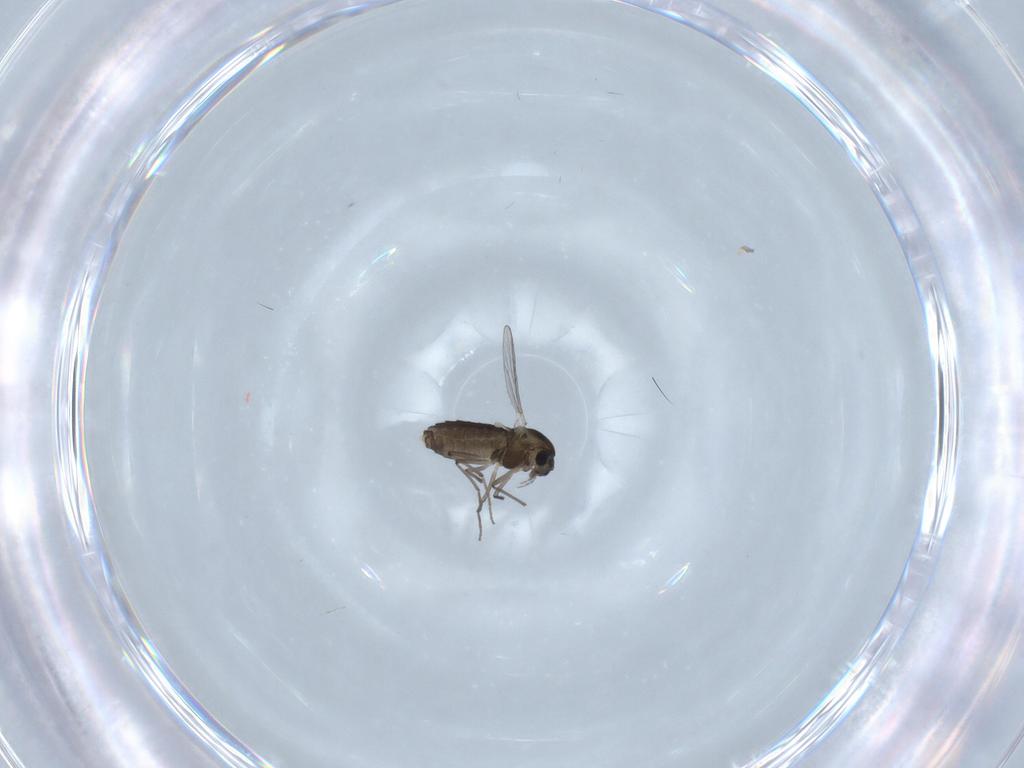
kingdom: Animalia
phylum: Arthropoda
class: Insecta
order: Diptera
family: Chironomidae
